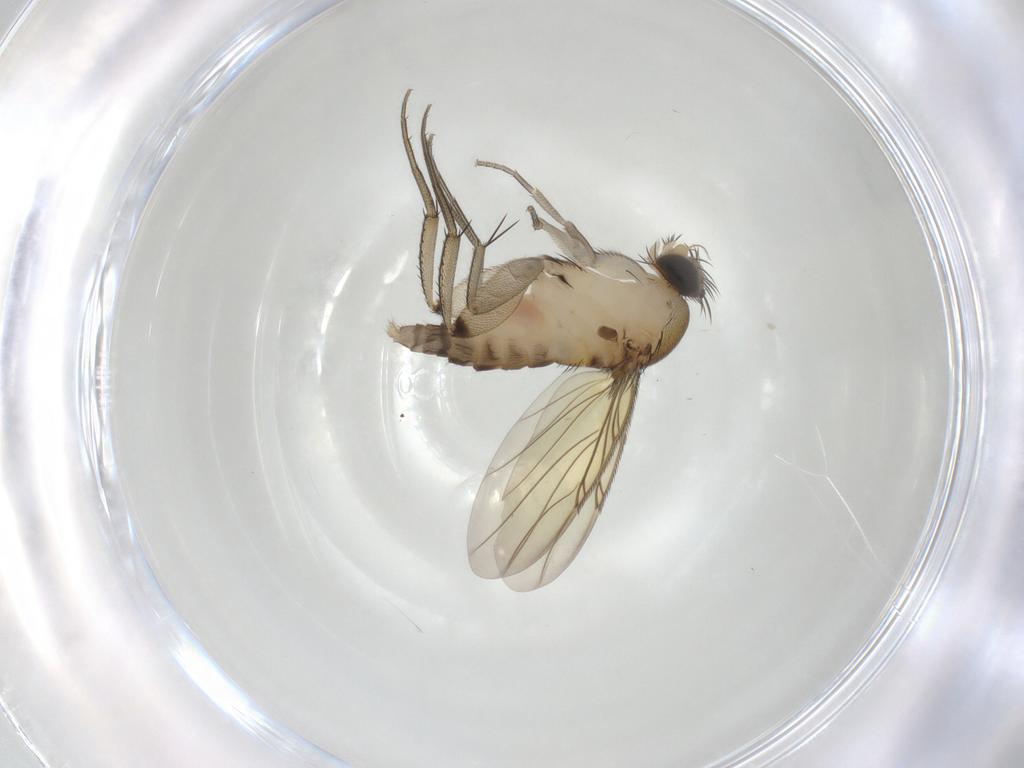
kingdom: Animalia
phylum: Arthropoda
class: Insecta
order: Diptera
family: Phoridae
